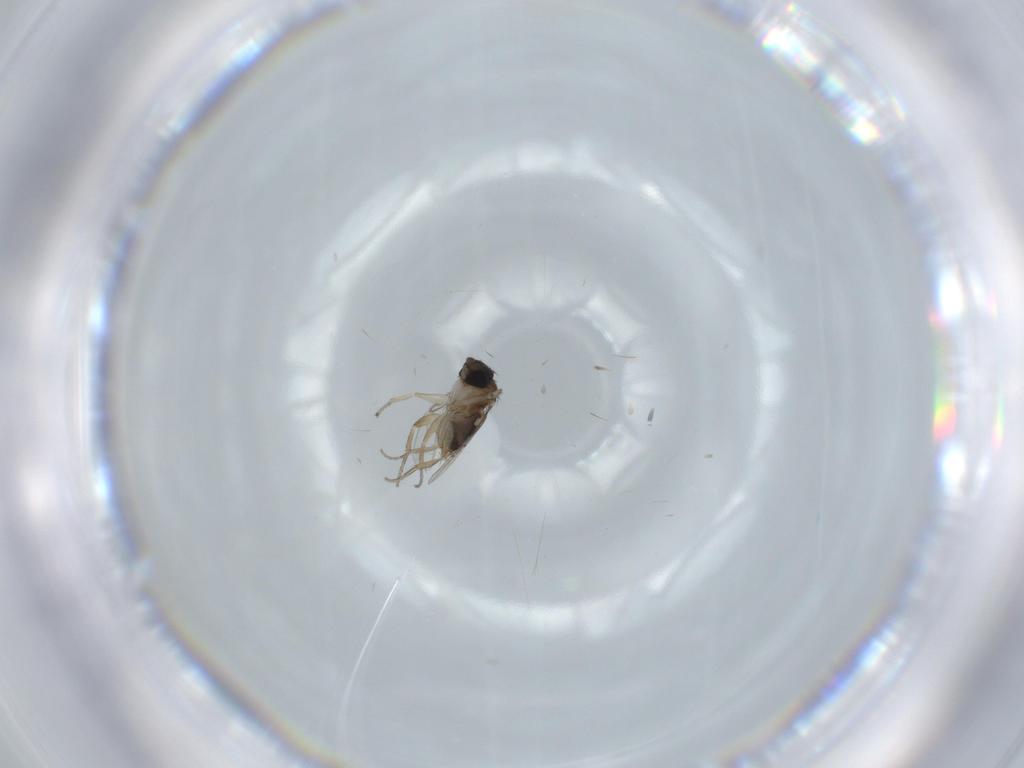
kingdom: Animalia
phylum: Arthropoda
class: Insecta
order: Diptera
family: Phoridae
